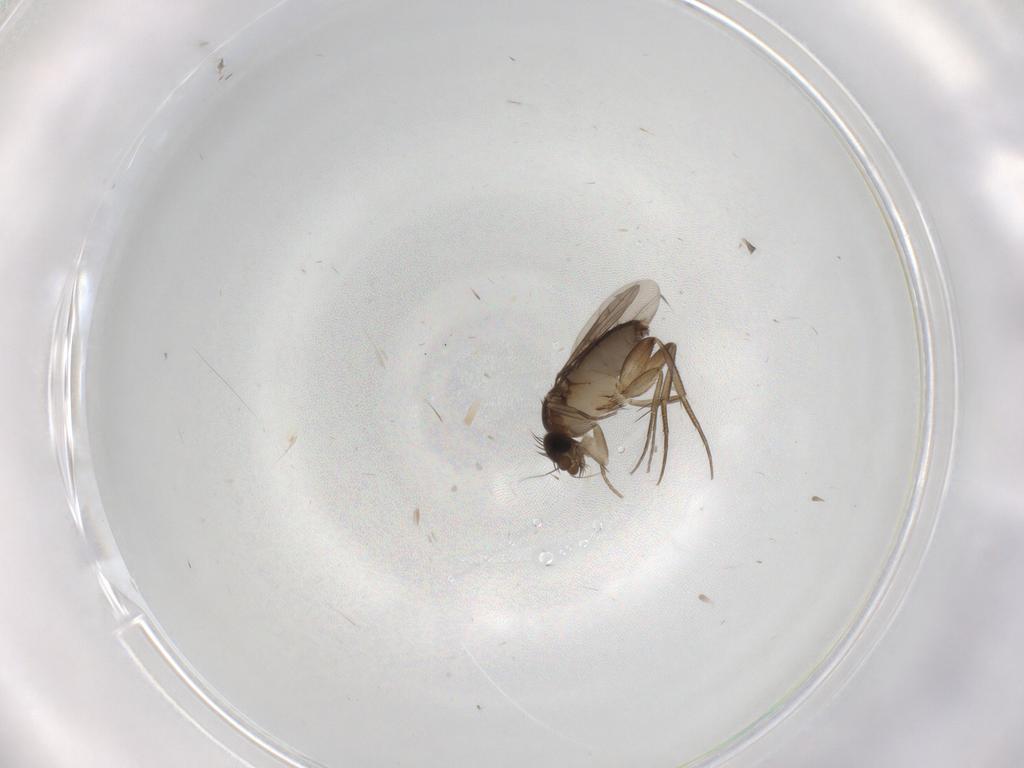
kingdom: Animalia
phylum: Arthropoda
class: Insecta
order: Diptera
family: Phoridae
